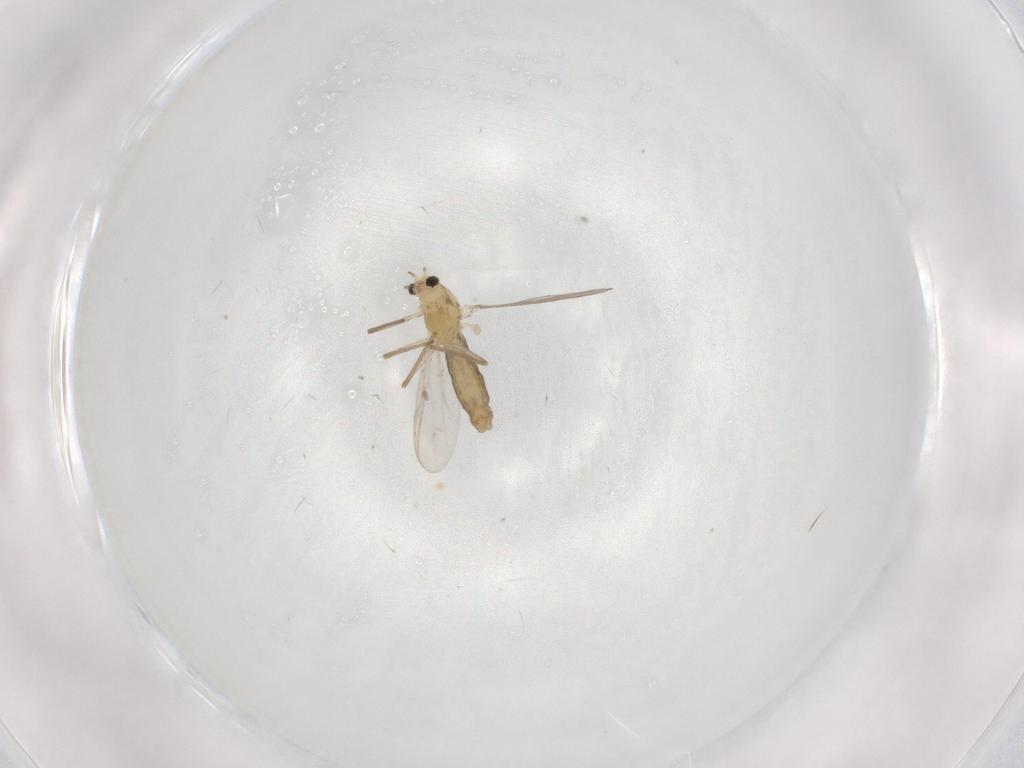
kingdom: Animalia
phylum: Arthropoda
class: Insecta
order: Diptera
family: Chironomidae
